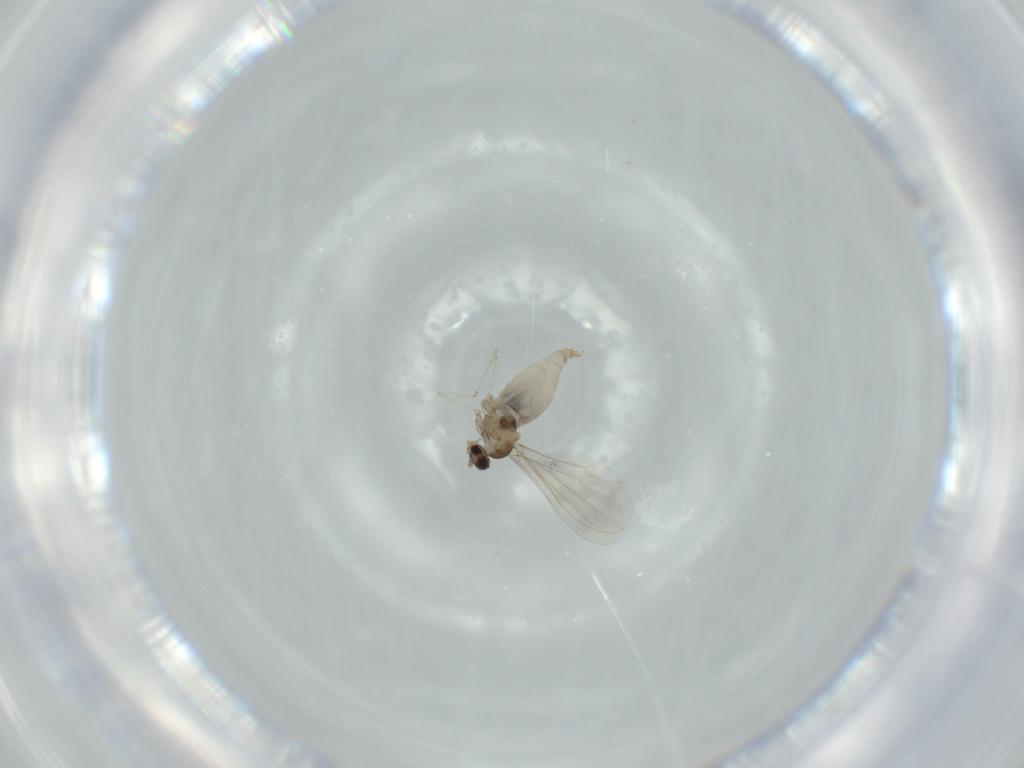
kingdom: Animalia
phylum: Arthropoda
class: Insecta
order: Diptera
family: Cecidomyiidae
